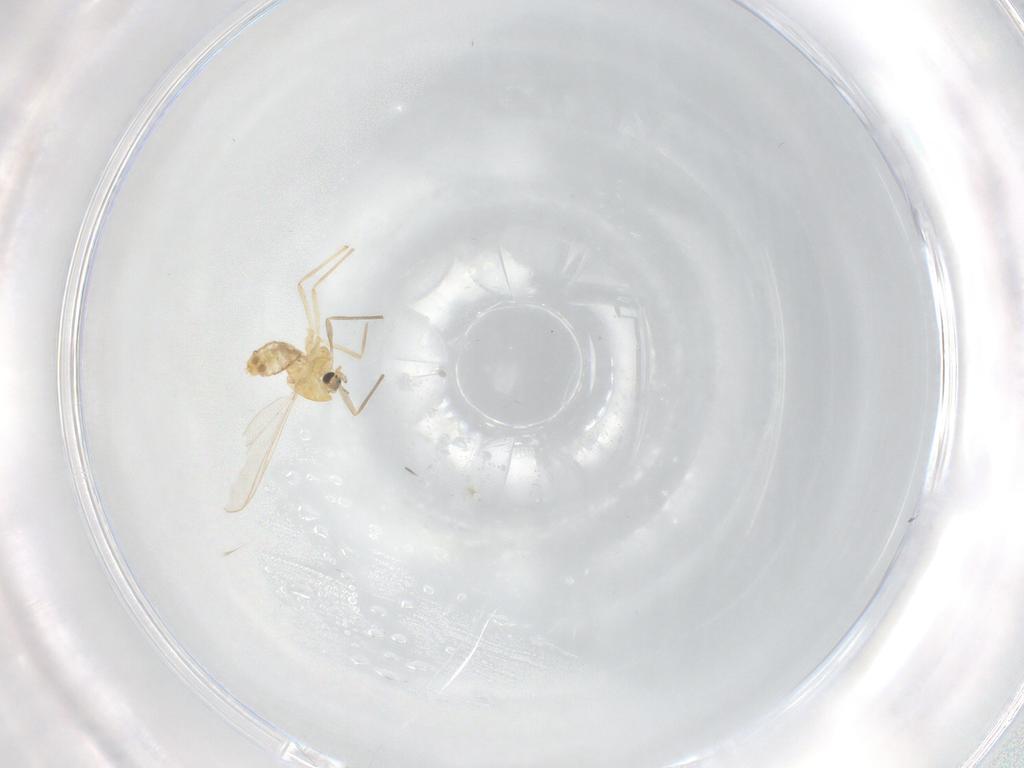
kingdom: Animalia
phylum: Arthropoda
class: Insecta
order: Diptera
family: Chironomidae
